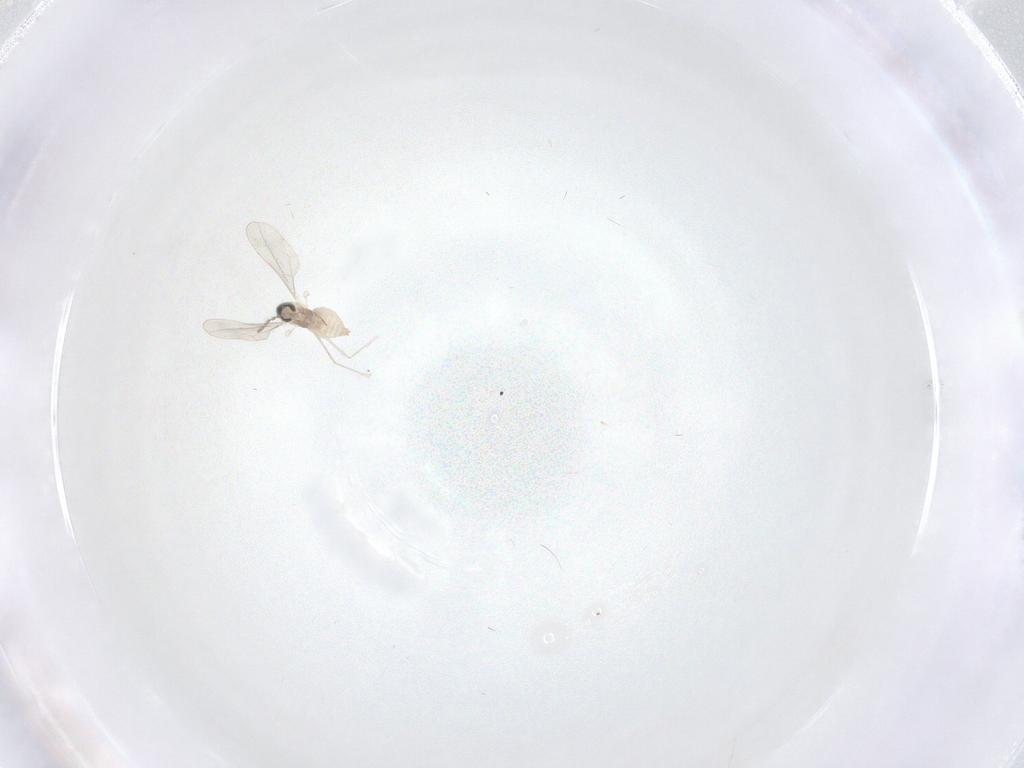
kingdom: Animalia
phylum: Arthropoda
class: Insecta
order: Diptera
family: Cecidomyiidae
